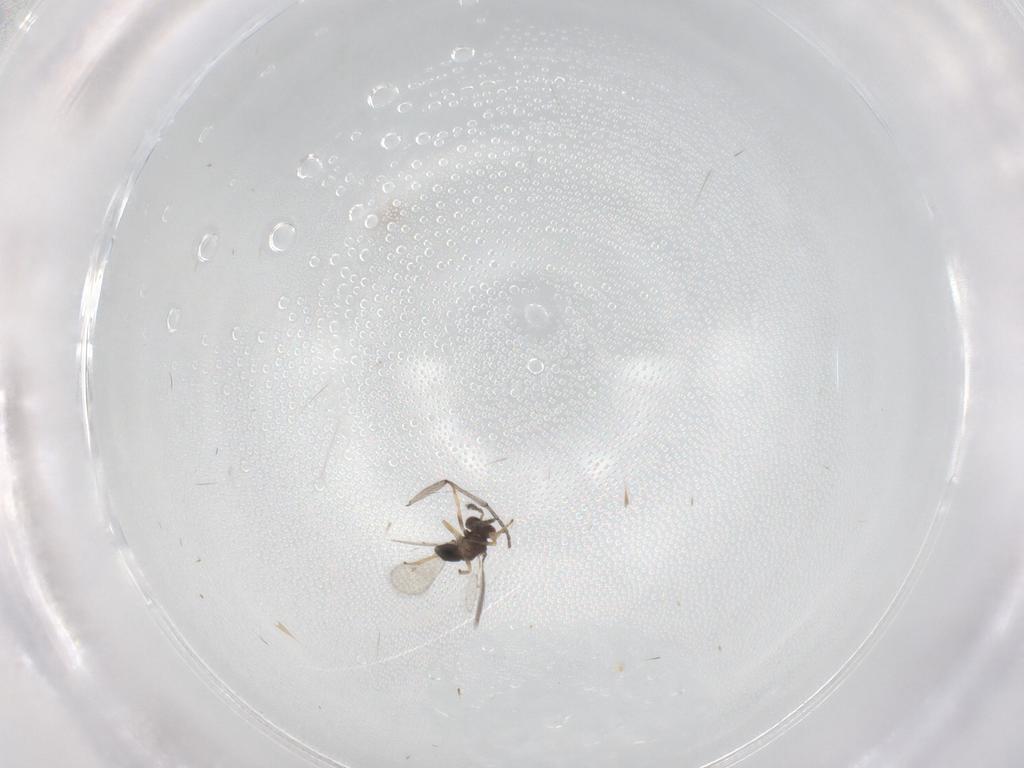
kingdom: Animalia
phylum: Arthropoda
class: Insecta
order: Hymenoptera
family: Eulophidae
